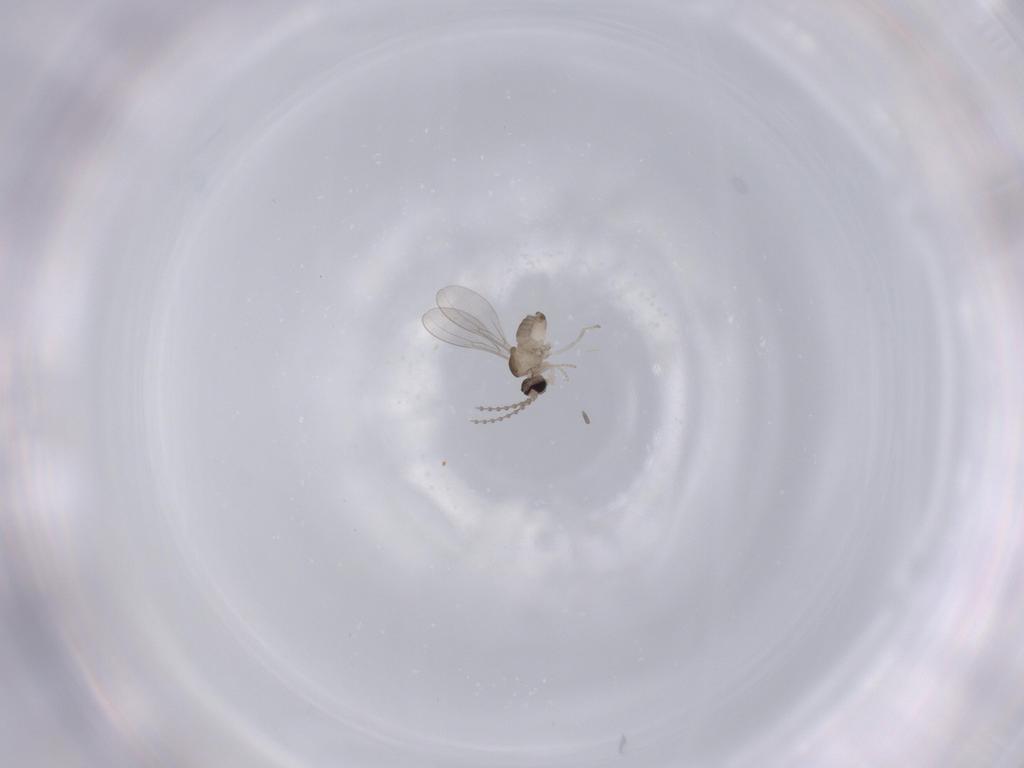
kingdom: Animalia
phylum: Arthropoda
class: Insecta
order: Diptera
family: Cecidomyiidae
